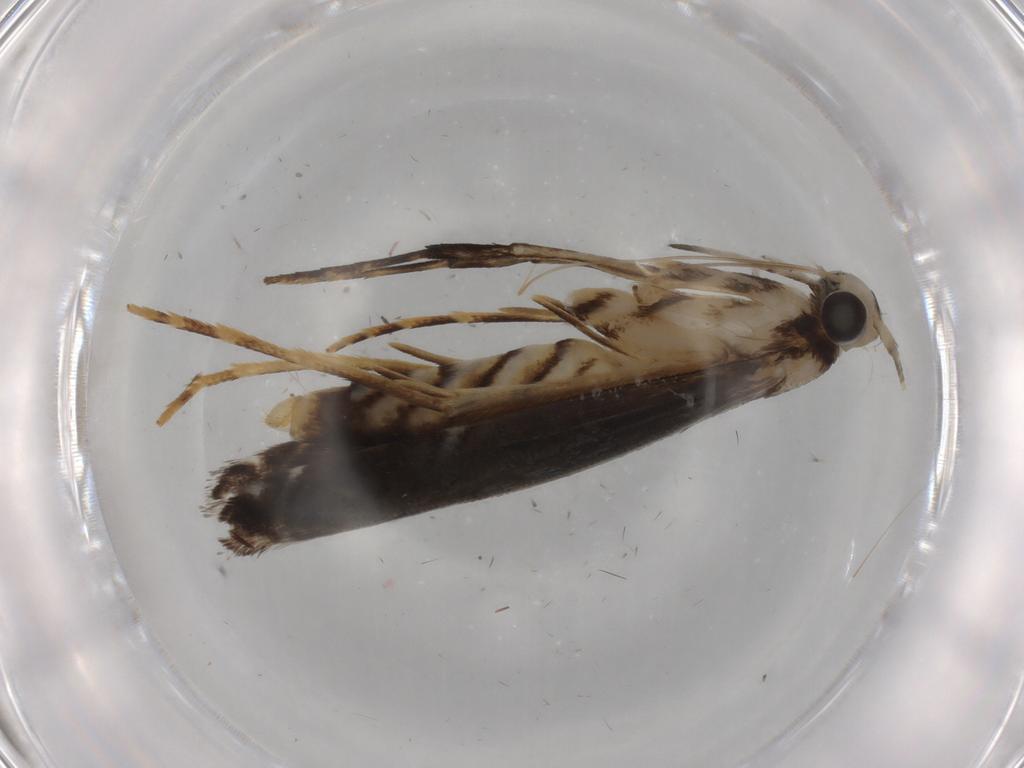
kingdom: Animalia
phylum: Arthropoda
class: Insecta
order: Lepidoptera
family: Gracillariidae
